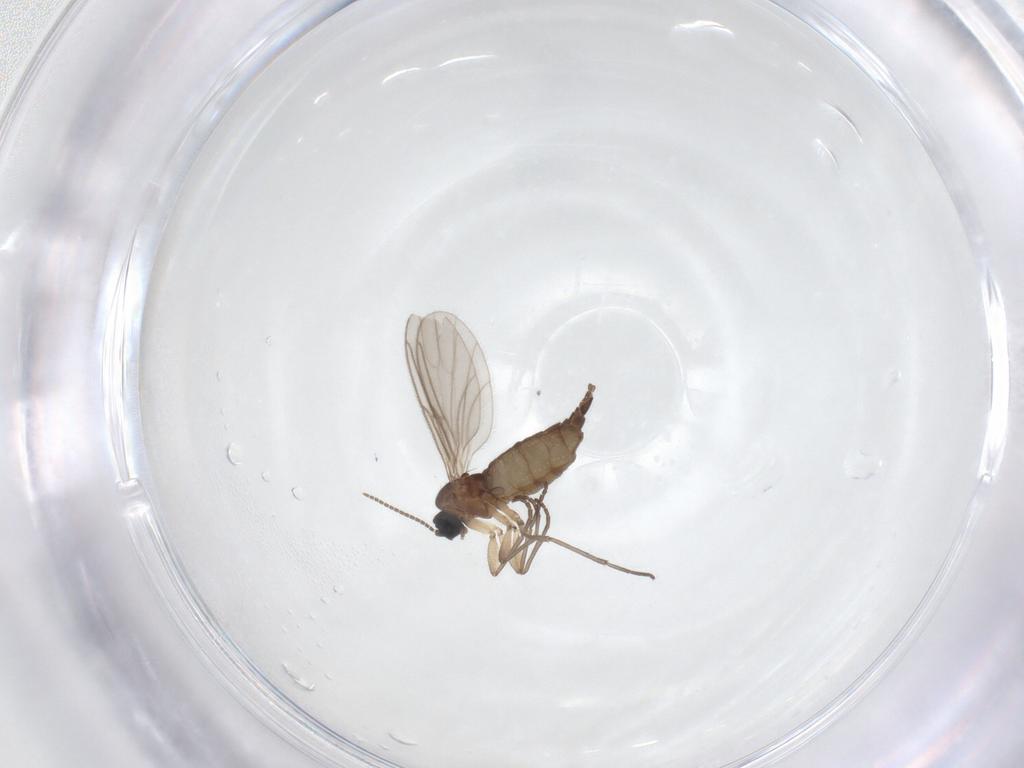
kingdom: Animalia
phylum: Arthropoda
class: Insecta
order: Diptera
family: Sciaridae
